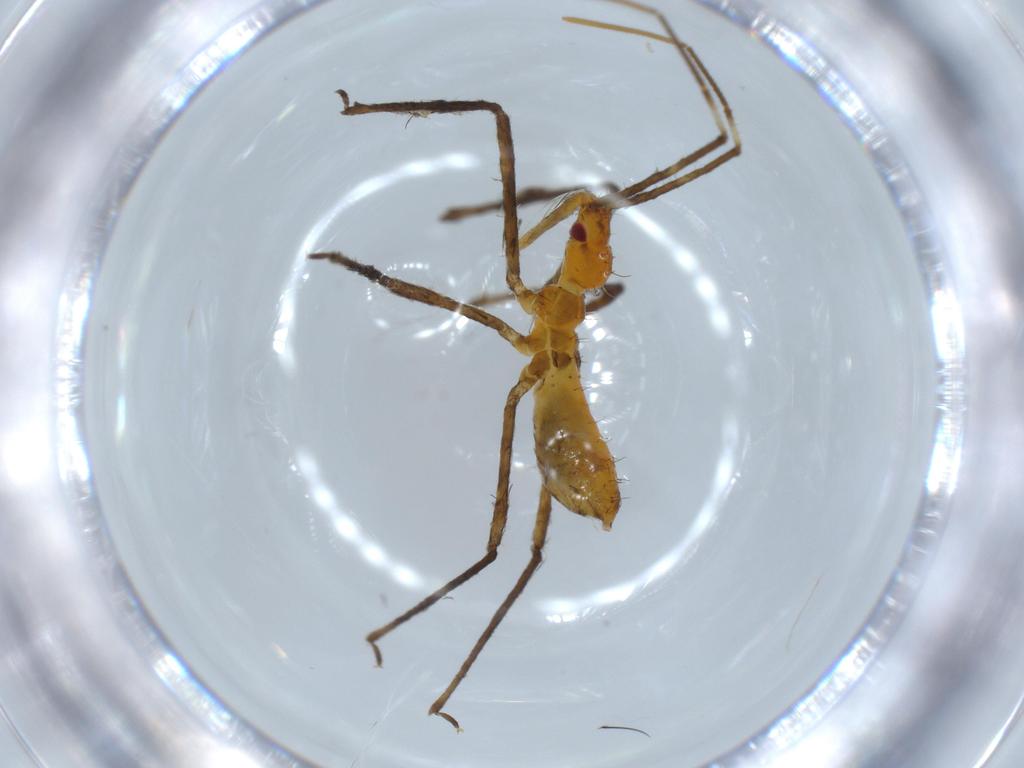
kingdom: Animalia
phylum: Arthropoda
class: Insecta
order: Hemiptera
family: Reduviidae
